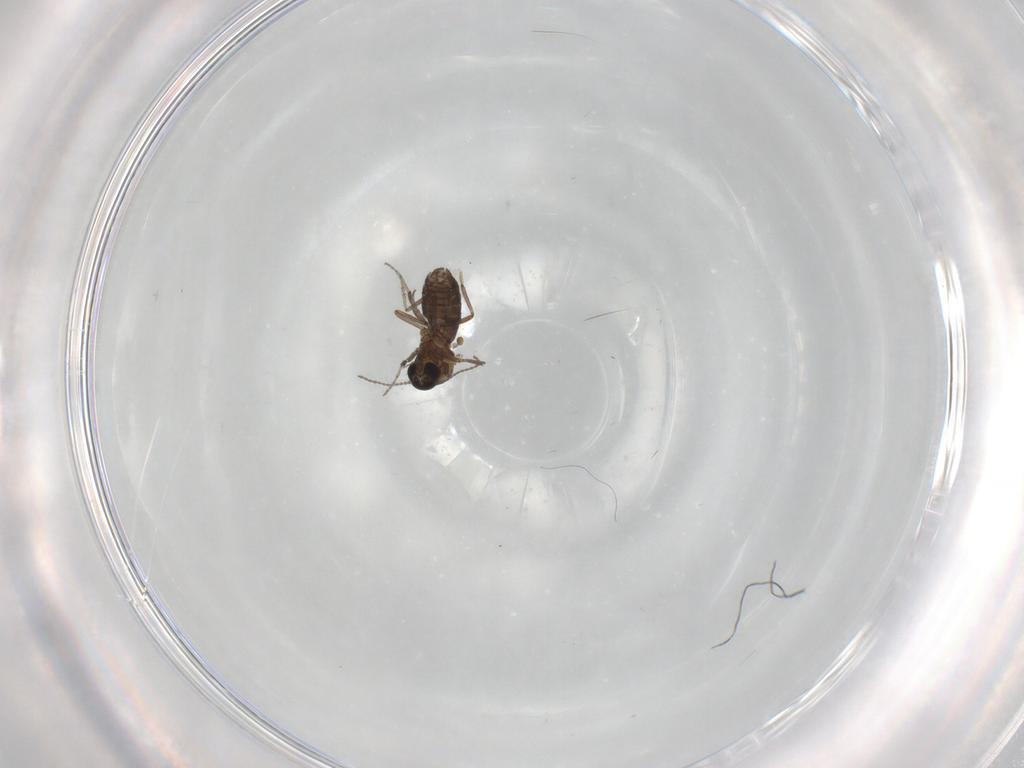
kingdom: Animalia
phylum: Arthropoda
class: Insecta
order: Diptera
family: Ceratopogonidae
